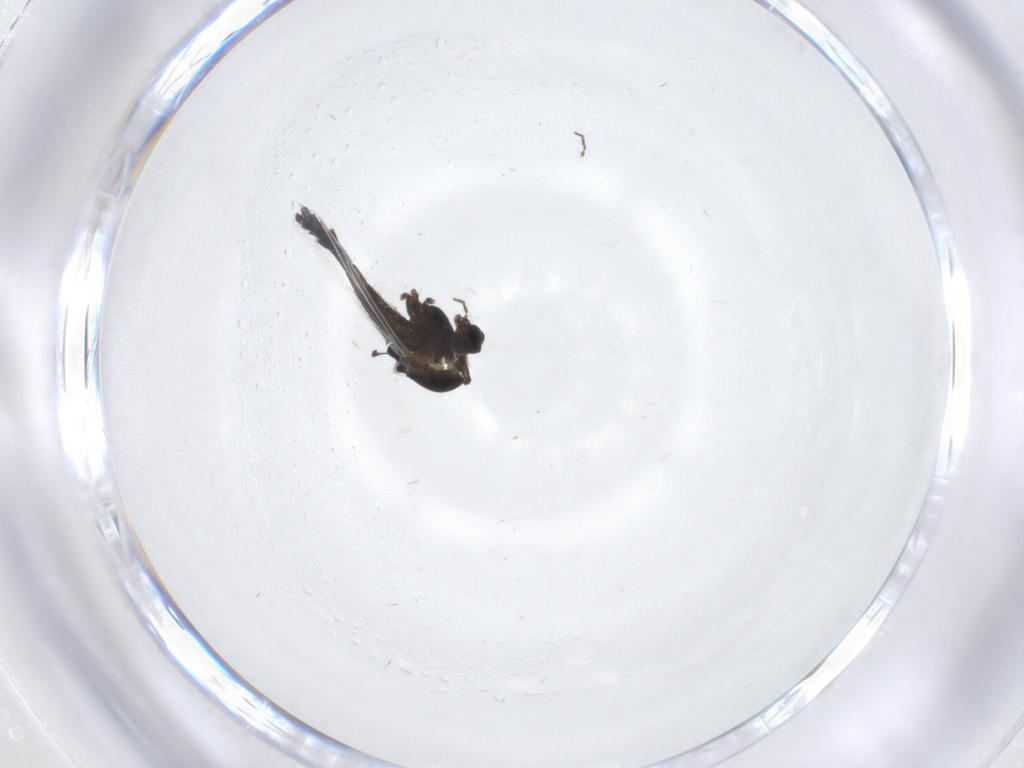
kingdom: Animalia
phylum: Arthropoda
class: Insecta
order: Diptera
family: Chironomidae
